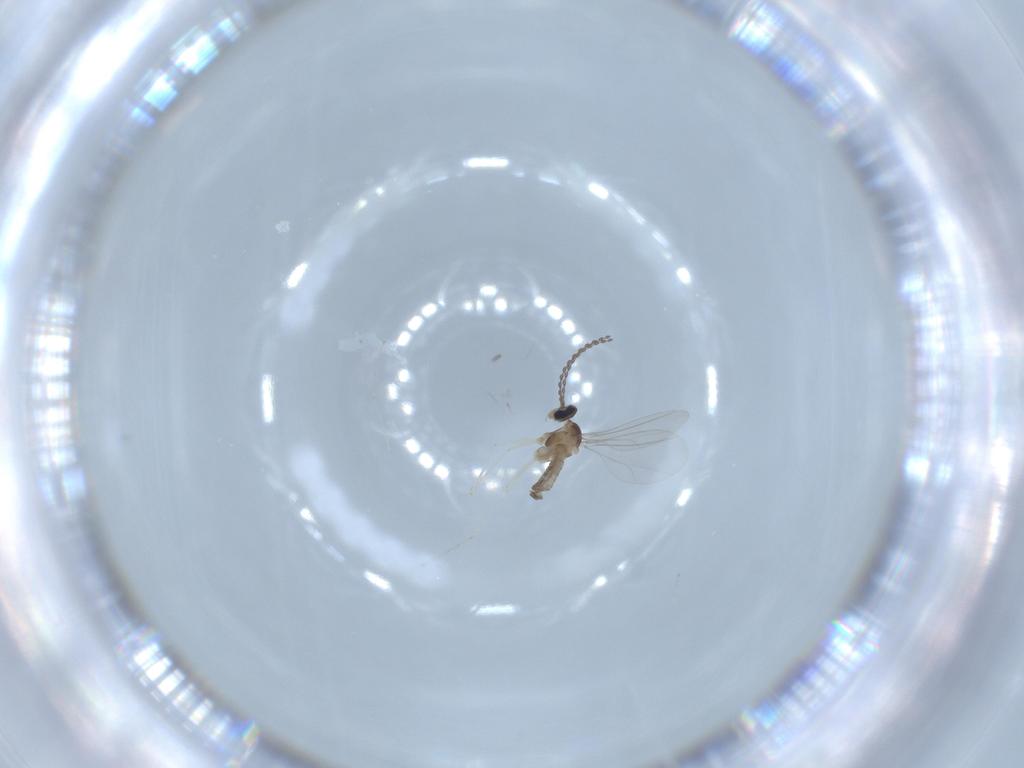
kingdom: Animalia
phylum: Arthropoda
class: Insecta
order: Diptera
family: Cecidomyiidae
